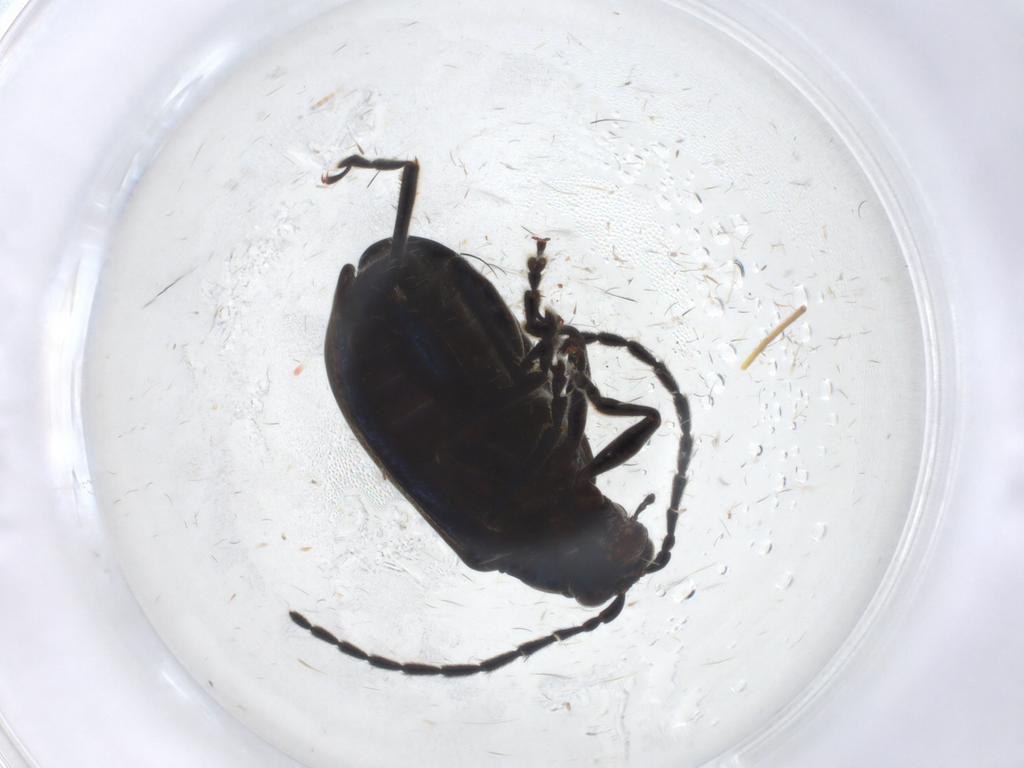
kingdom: Animalia
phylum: Arthropoda
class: Insecta
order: Coleoptera
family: Chrysomelidae
